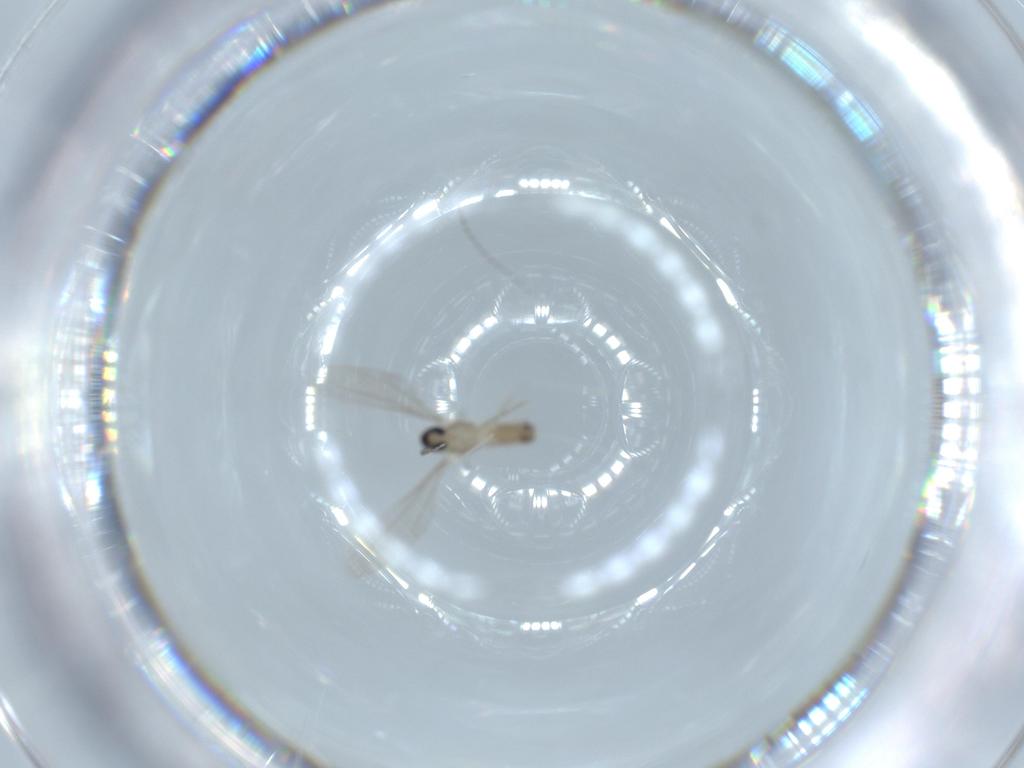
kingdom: Animalia
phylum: Arthropoda
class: Insecta
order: Diptera
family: Cecidomyiidae
